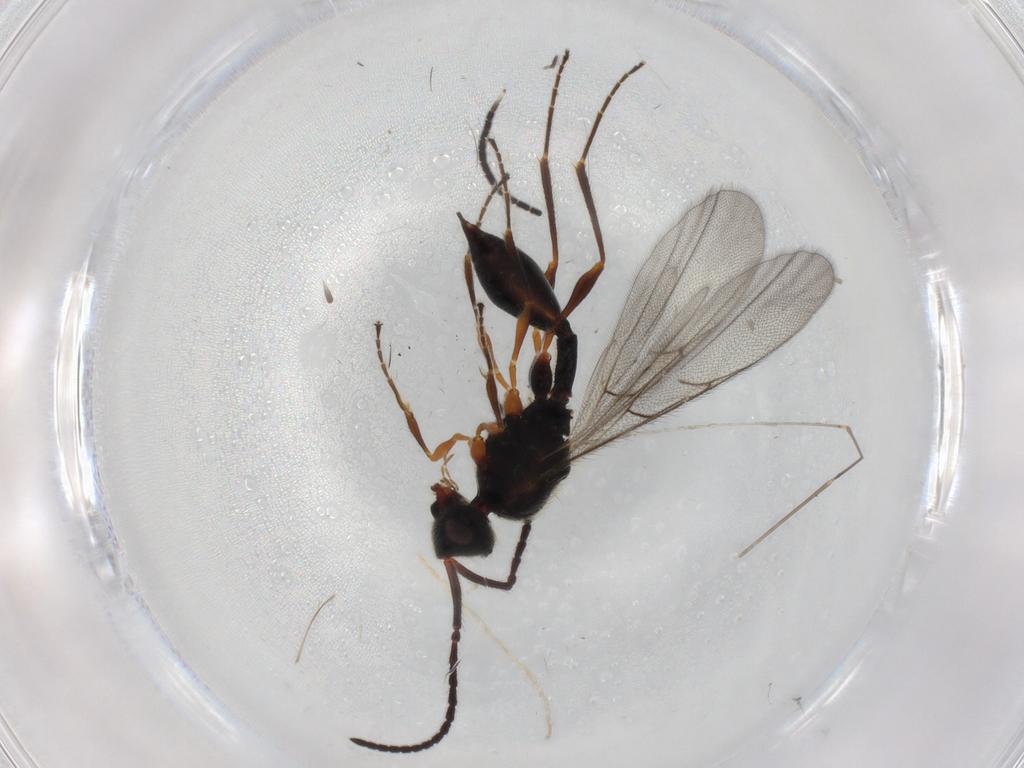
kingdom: Animalia
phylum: Arthropoda
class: Insecta
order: Hymenoptera
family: Diapriidae
